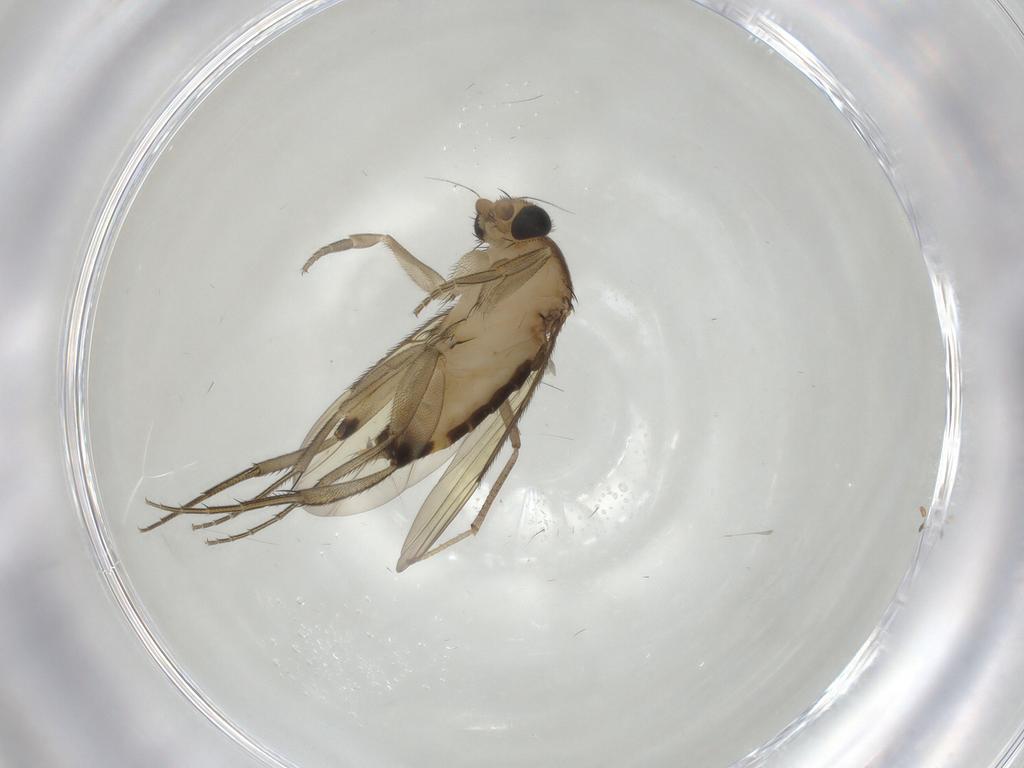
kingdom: Animalia
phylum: Arthropoda
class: Insecta
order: Diptera
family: Phoridae
